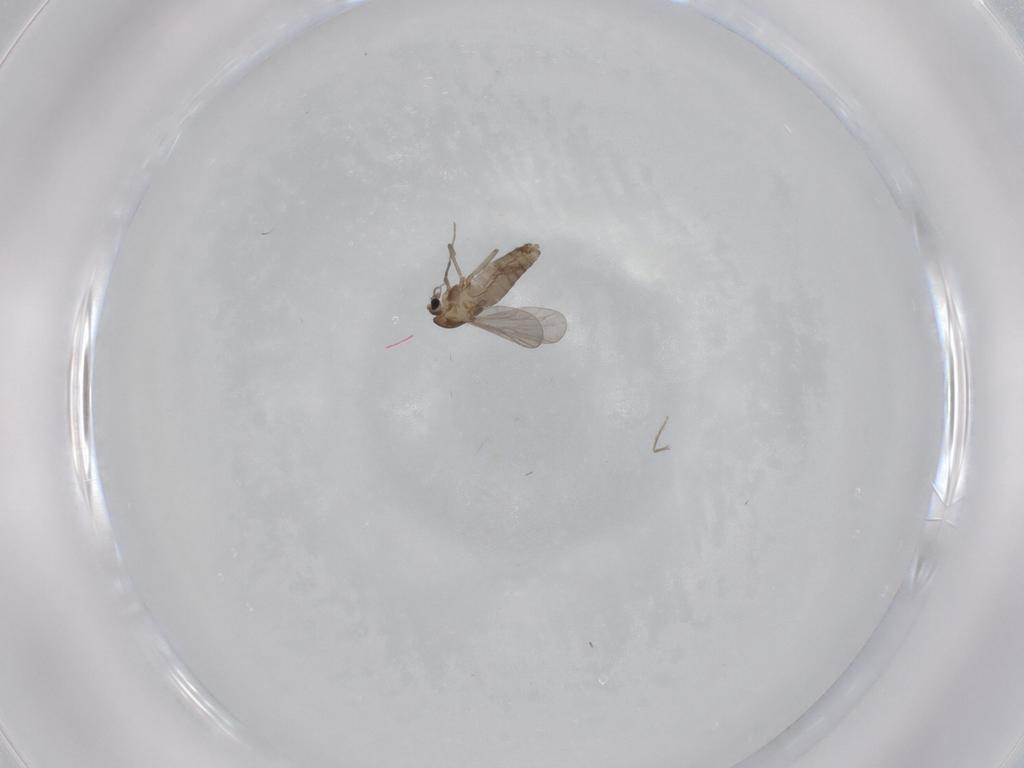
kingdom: Animalia
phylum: Arthropoda
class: Insecta
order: Diptera
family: Chironomidae
